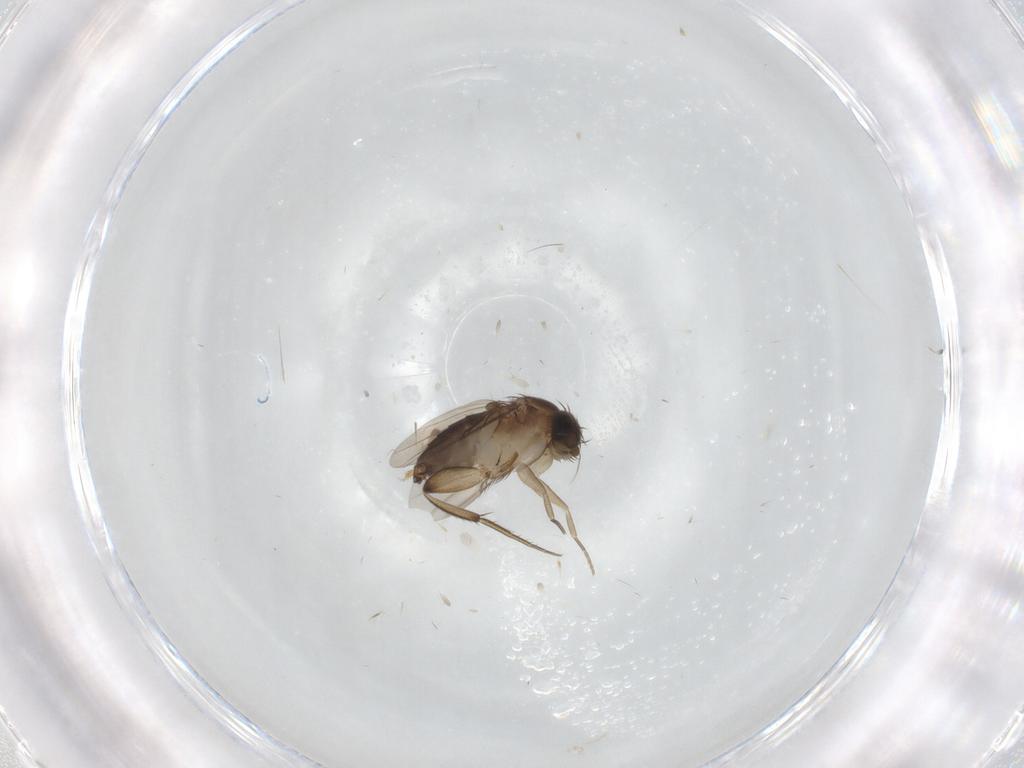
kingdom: Animalia
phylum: Arthropoda
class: Insecta
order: Diptera
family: Phoridae
